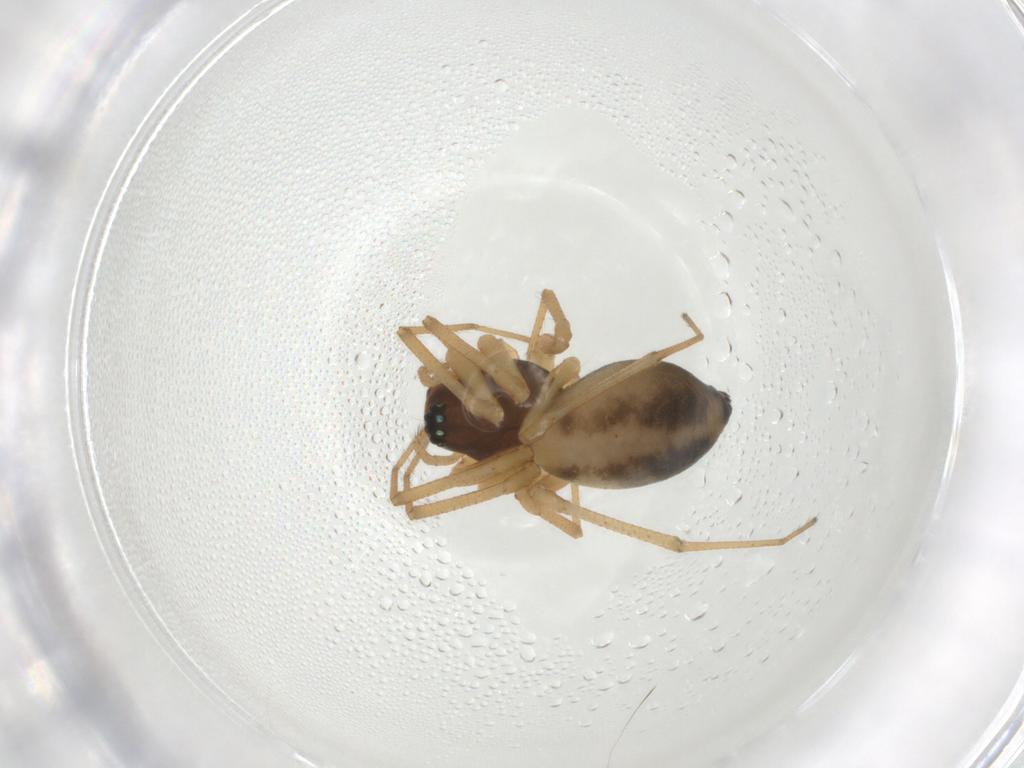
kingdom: Animalia
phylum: Arthropoda
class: Arachnida
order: Araneae
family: Linyphiidae
